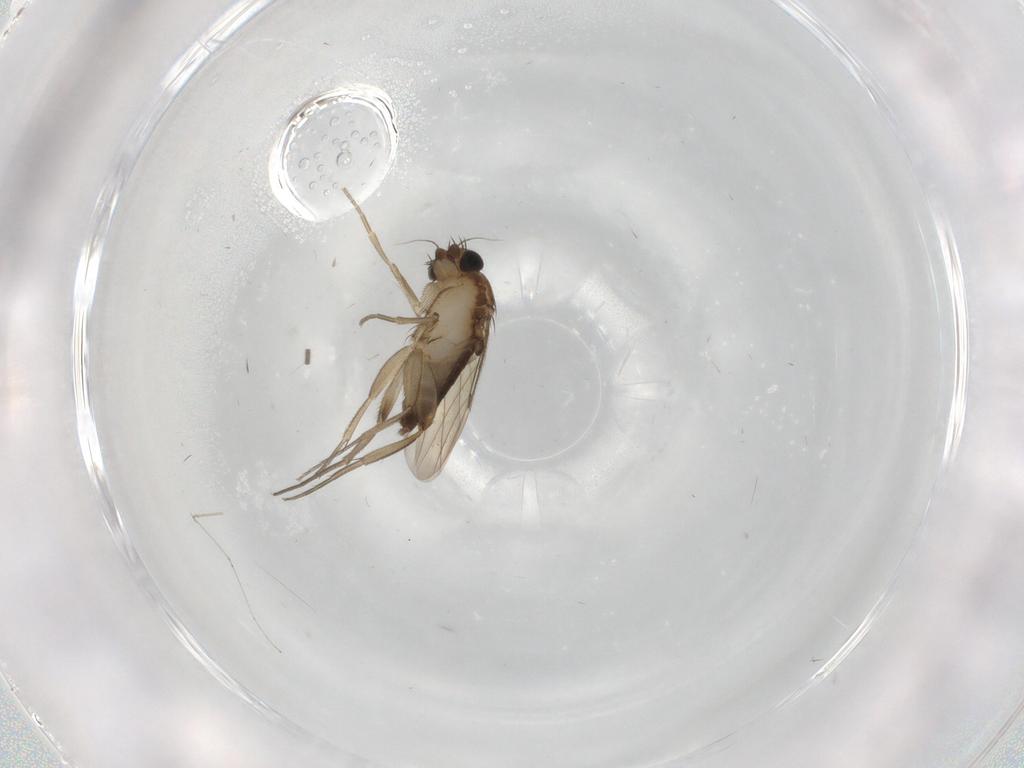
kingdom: Animalia
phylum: Arthropoda
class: Insecta
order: Diptera
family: Phoridae
